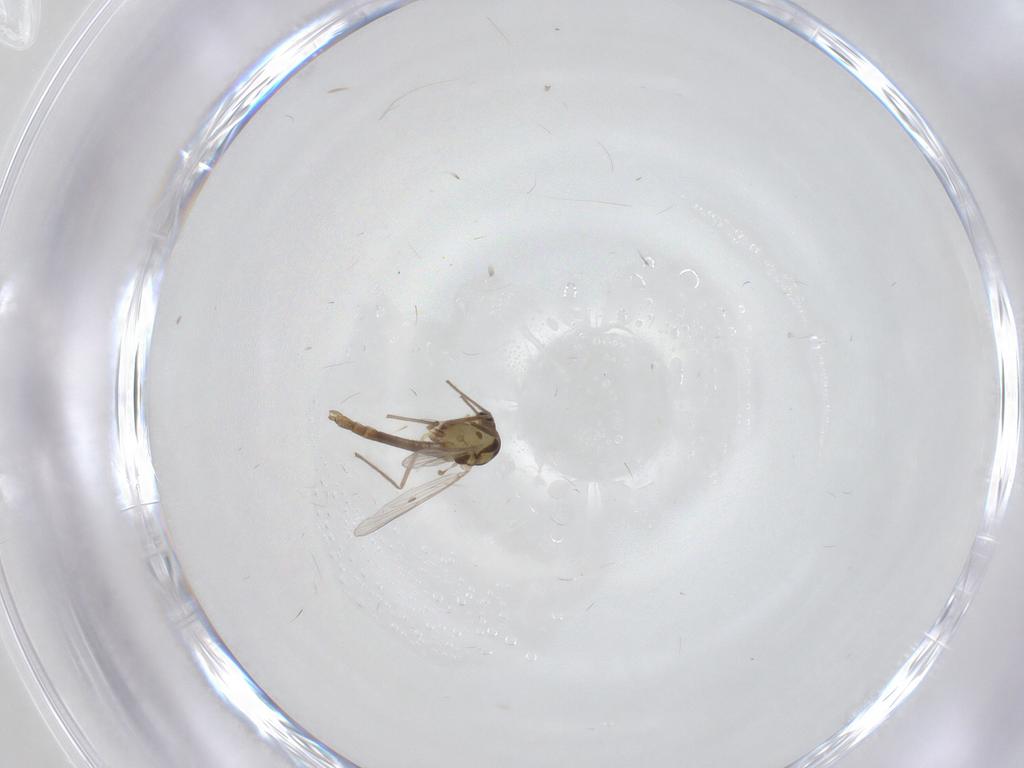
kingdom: Animalia
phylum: Arthropoda
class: Insecta
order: Diptera
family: Chironomidae
